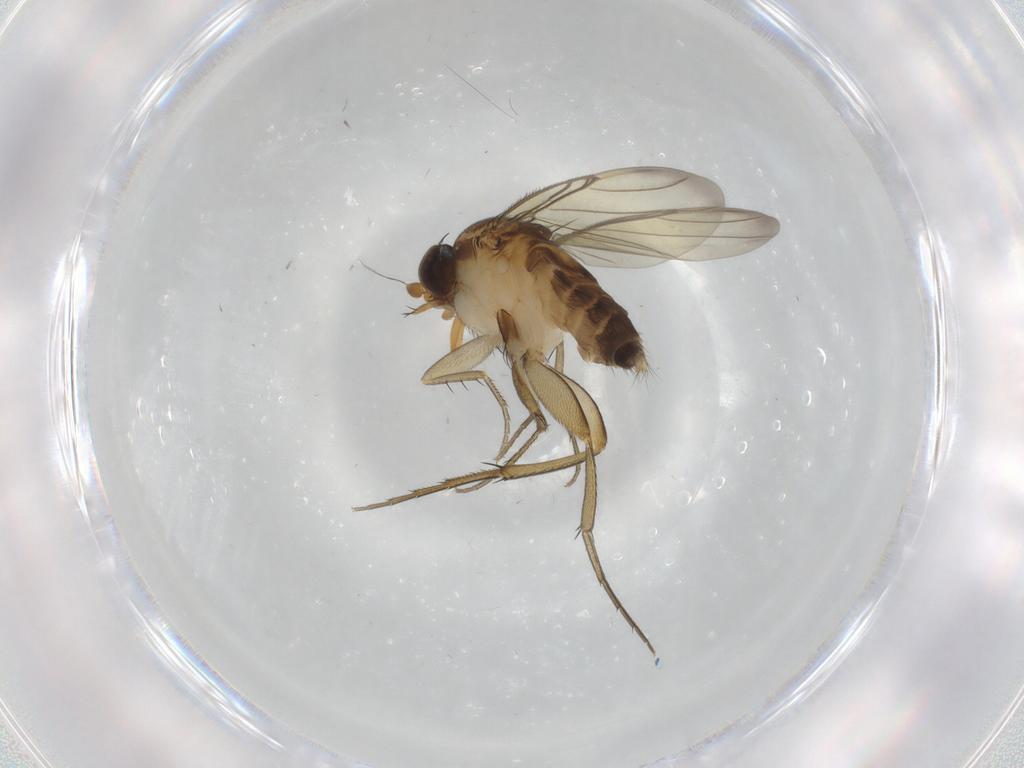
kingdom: Animalia
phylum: Arthropoda
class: Insecta
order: Diptera
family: Phoridae
